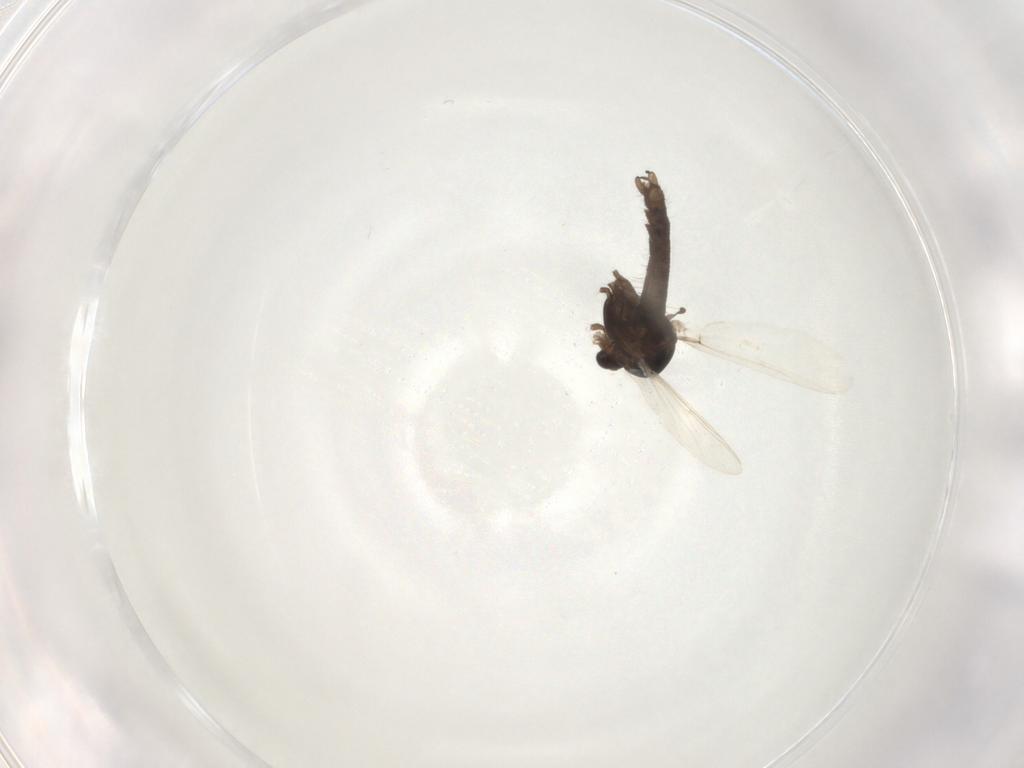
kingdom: Animalia
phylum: Arthropoda
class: Insecta
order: Diptera
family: Chironomidae
